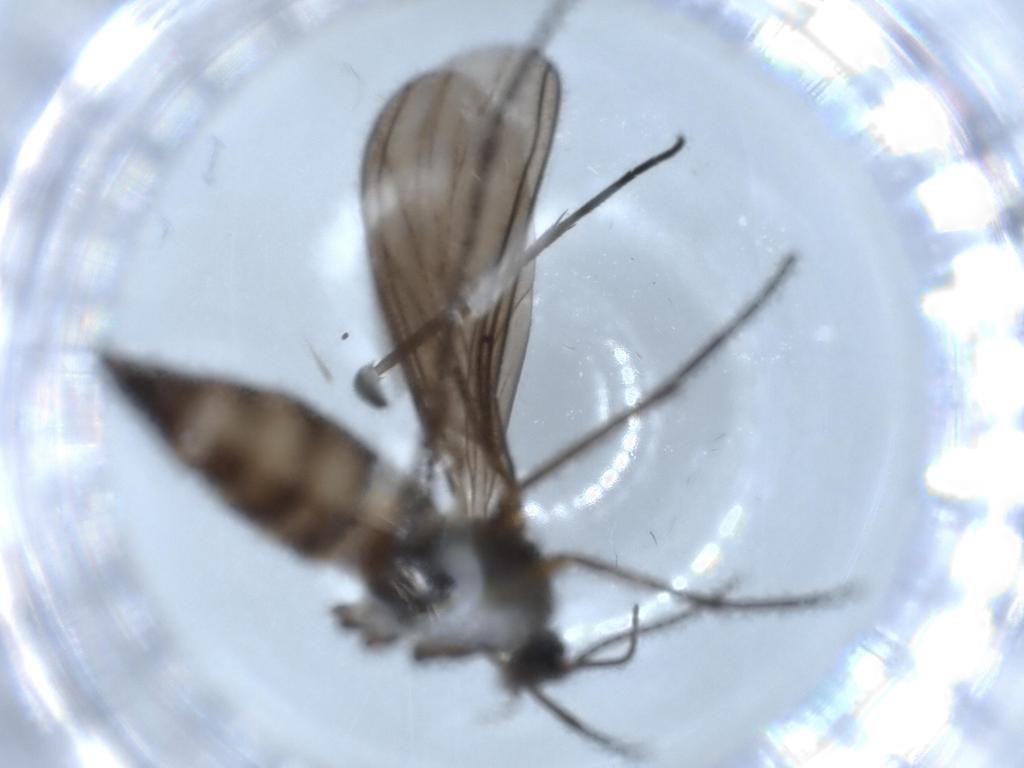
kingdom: Animalia
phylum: Arthropoda
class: Insecta
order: Diptera
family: Sciaridae
